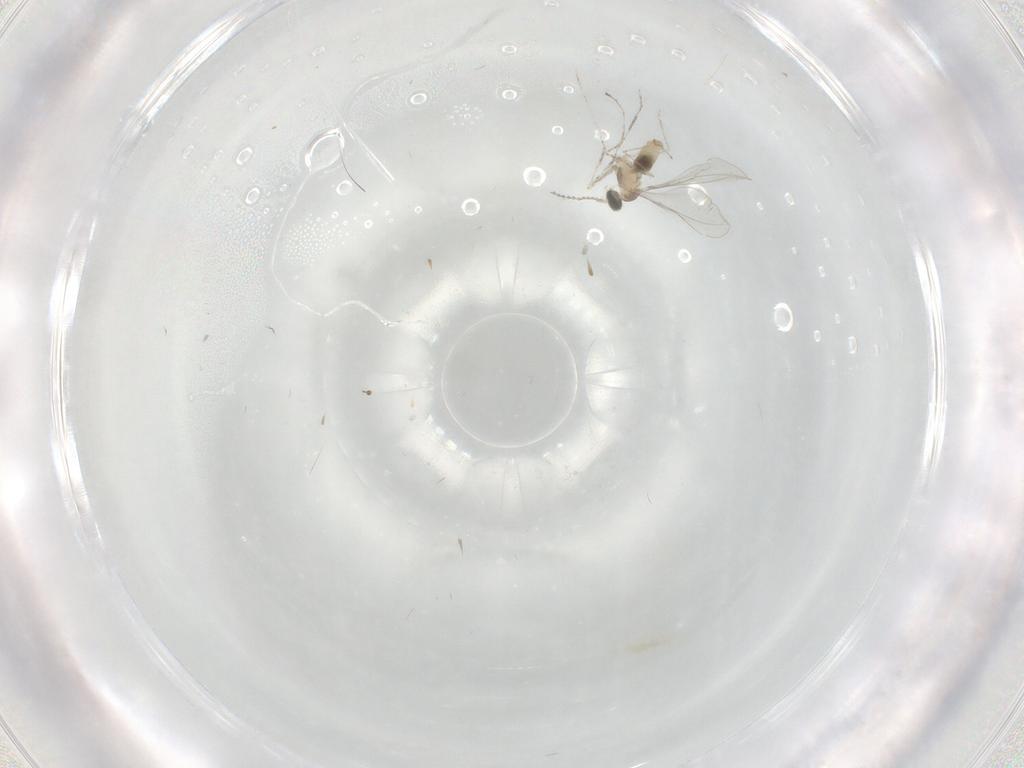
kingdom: Animalia
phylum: Arthropoda
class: Insecta
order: Diptera
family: Cecidomyiidae
